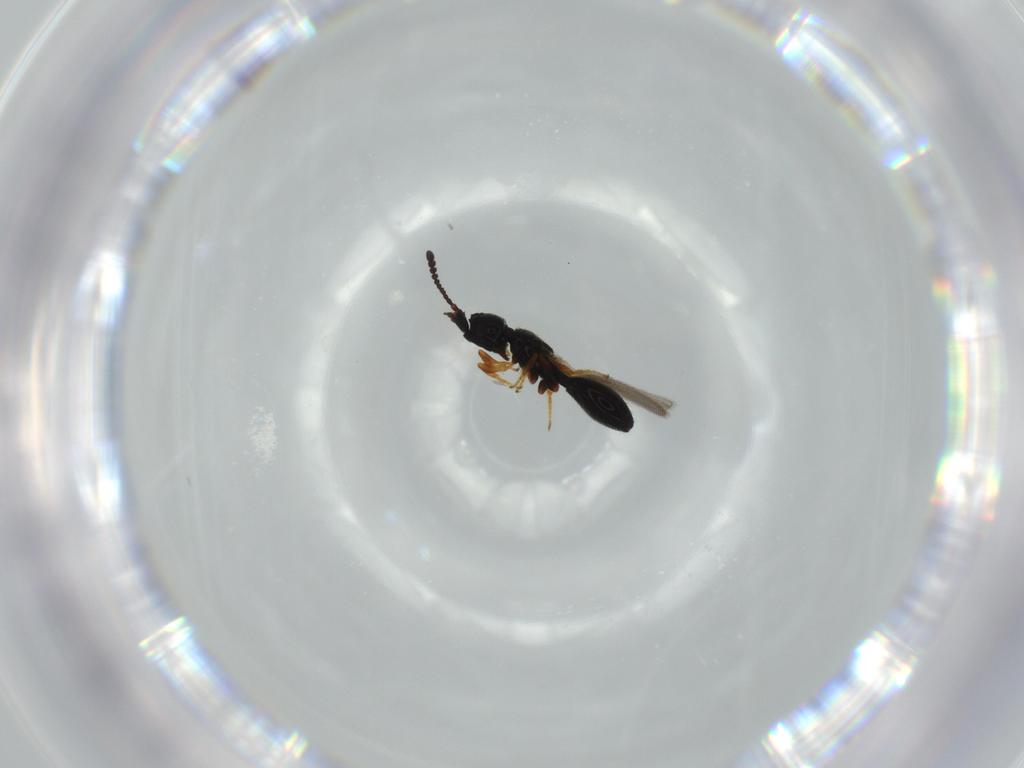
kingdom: Animalia
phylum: Arthropoda
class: Insecta
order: Hymenoptera
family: Diapriidae
